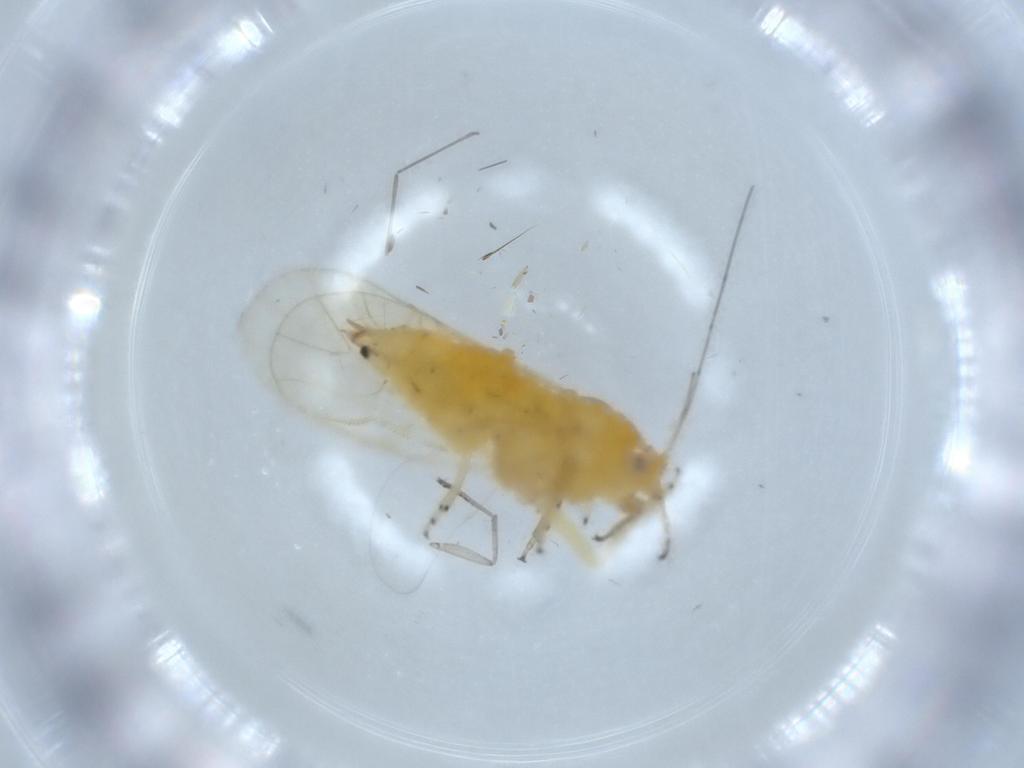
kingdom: Animalia
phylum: Arthropoda
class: Insecta
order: Hemiptera
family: Psyllidae
